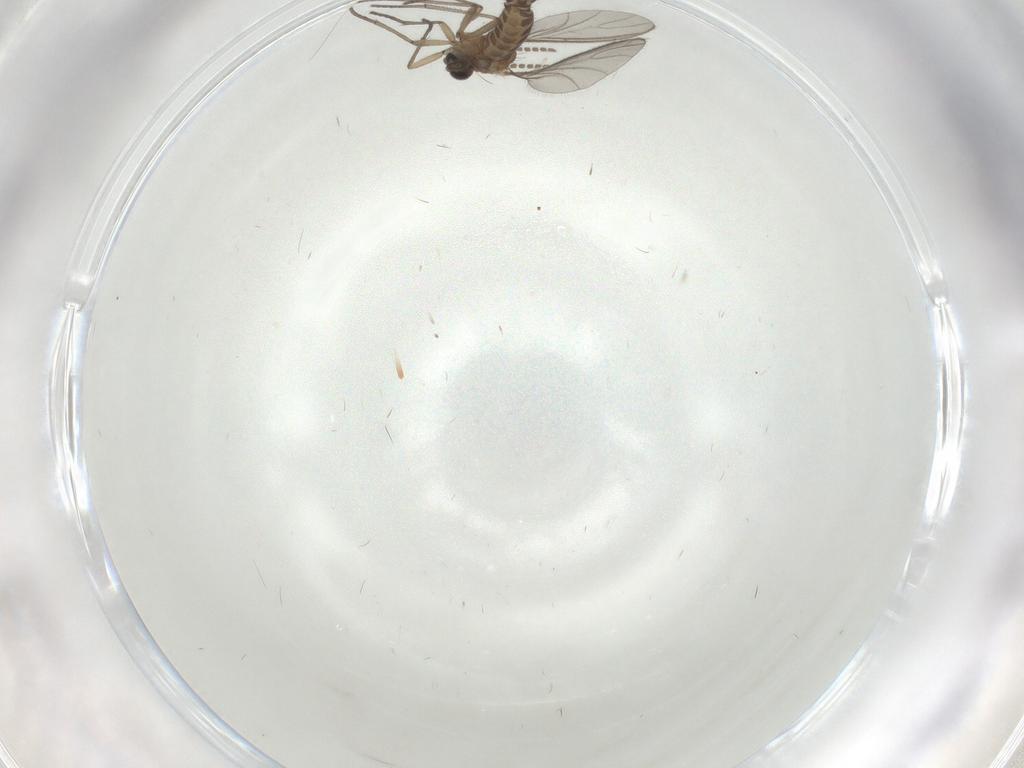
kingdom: Animalia
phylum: Arthropoda
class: Insecta
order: Diptera
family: Sciaridae
